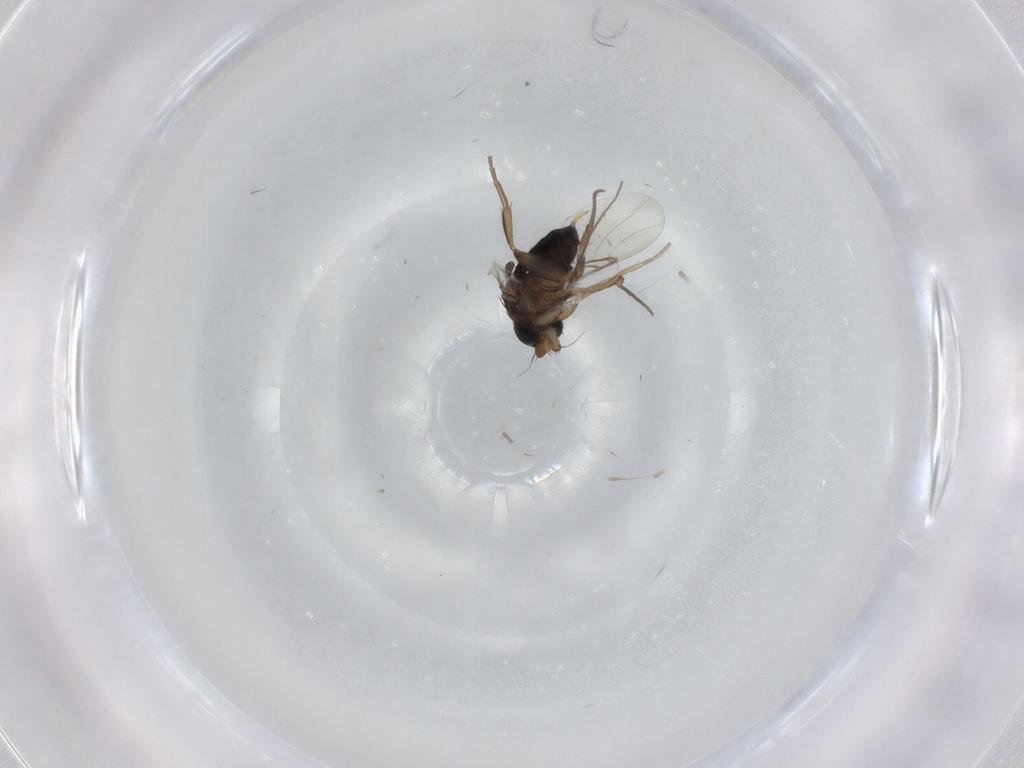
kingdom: Animalia
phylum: Arthropoda
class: Insecta
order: Diptera
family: Phoridae
